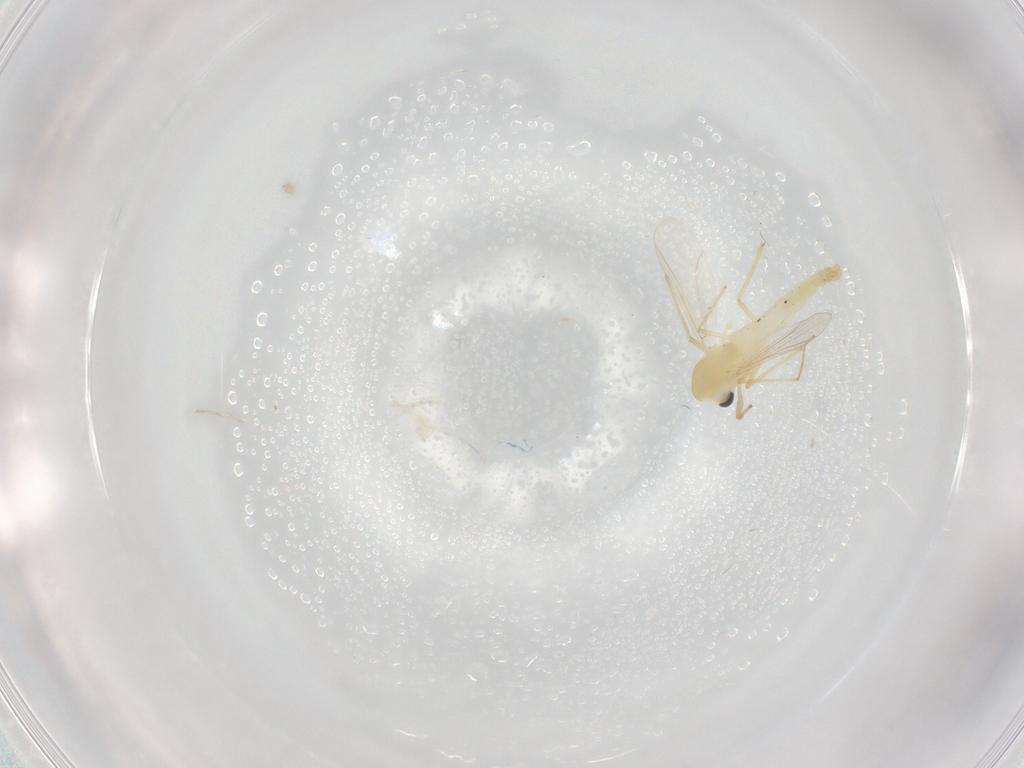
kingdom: Animalia
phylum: Arthropoda
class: Insecta
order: Diptera
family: Chironomidae
